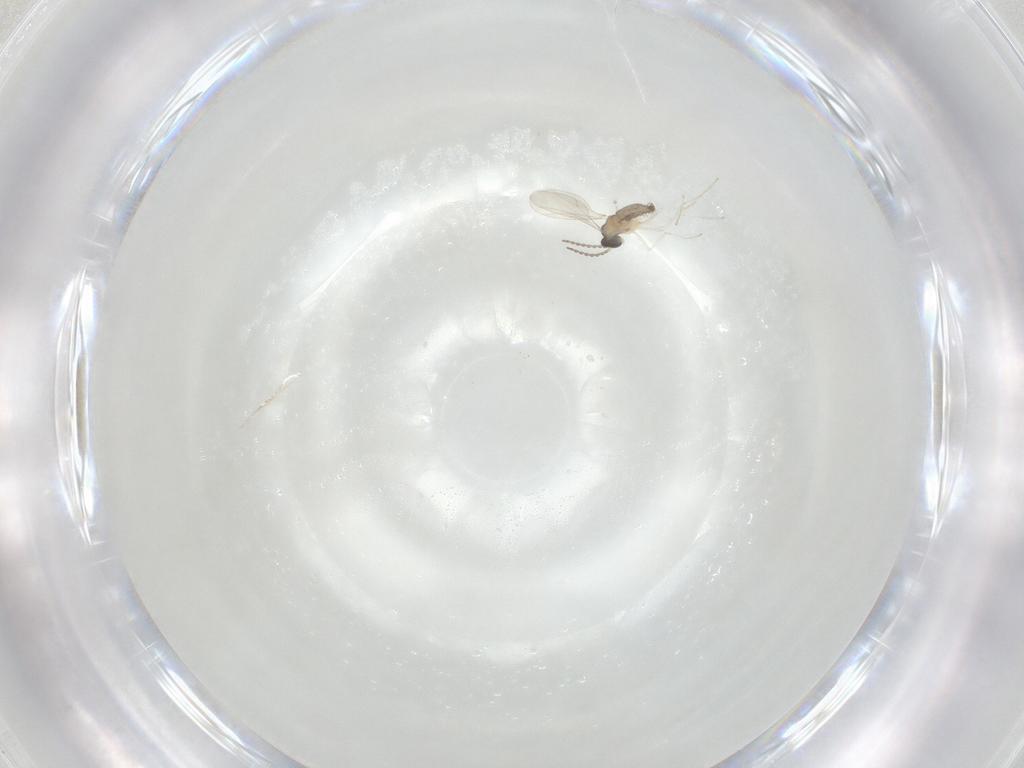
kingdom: Animalia
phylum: Arthropoda
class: Insecta
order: Diptera
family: Cecidomyiidae
